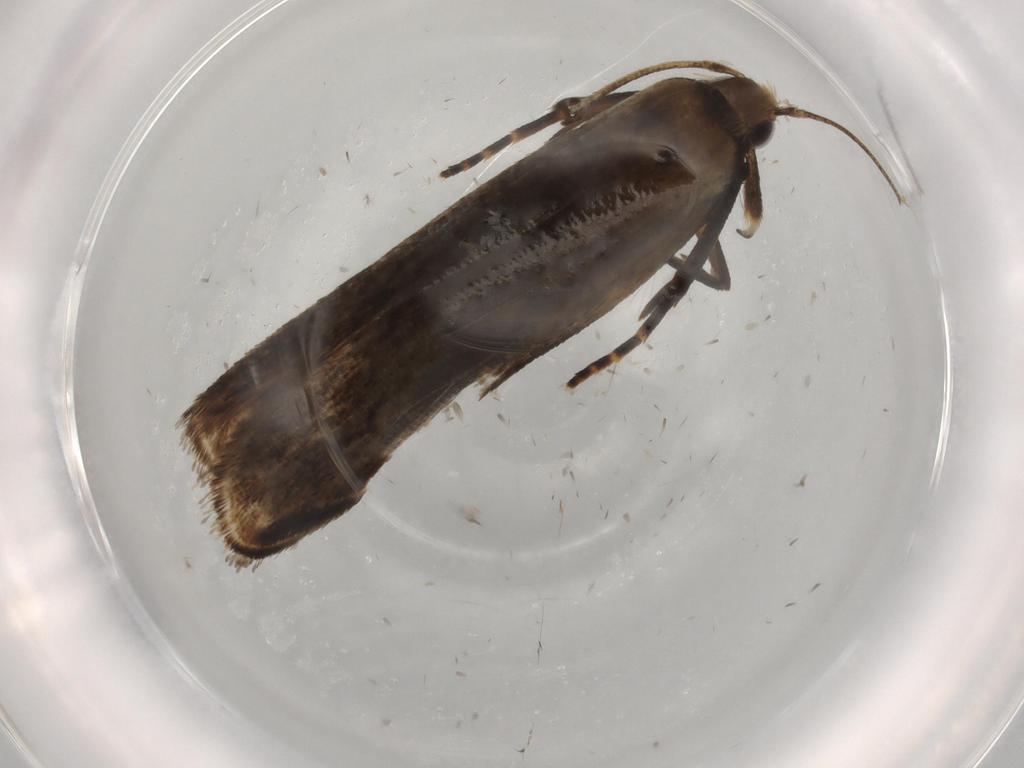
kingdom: Animalia
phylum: Arthropoda
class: Insecta
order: Lepidoptera
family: Gelechiidae
